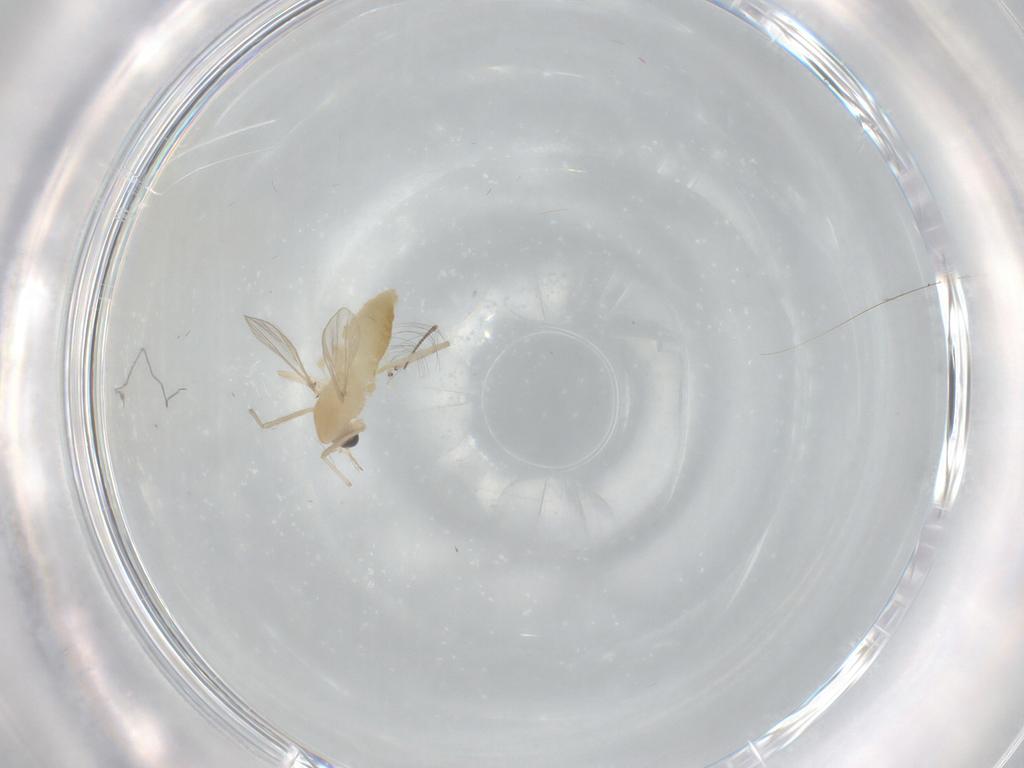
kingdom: Animalia
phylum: Arthropoda
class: Insecta
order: Diptera
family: Chironomidae
